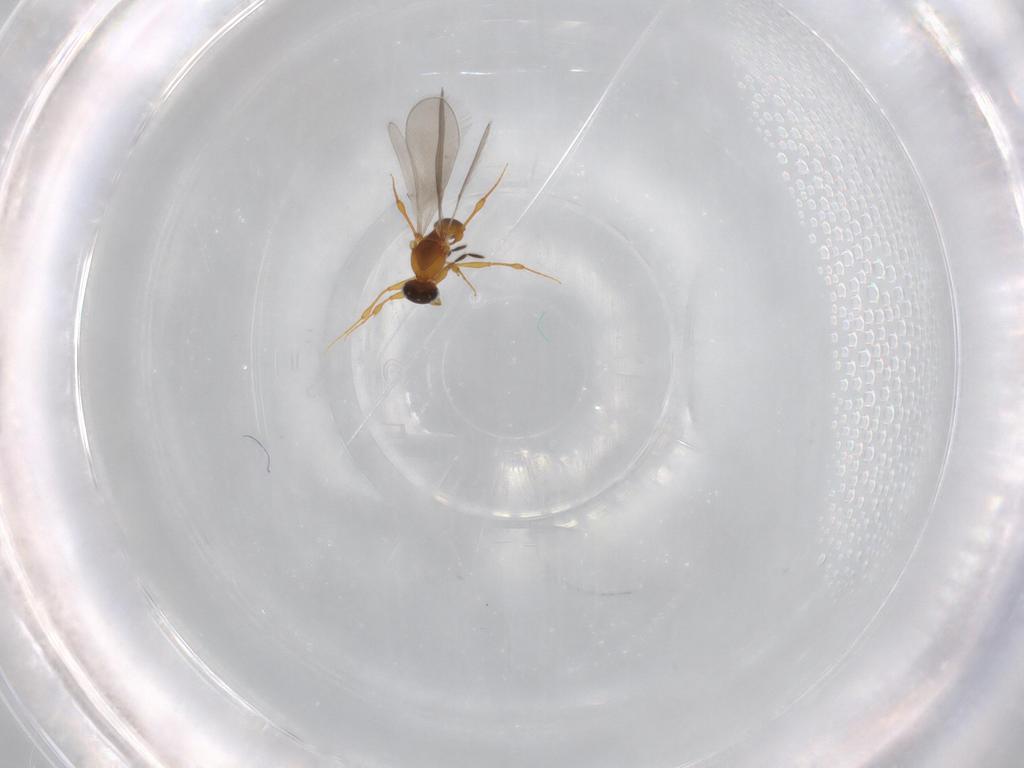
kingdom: Animalia
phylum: Arthropoda
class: Insecta
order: Hymenoptera
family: Platygastridae
